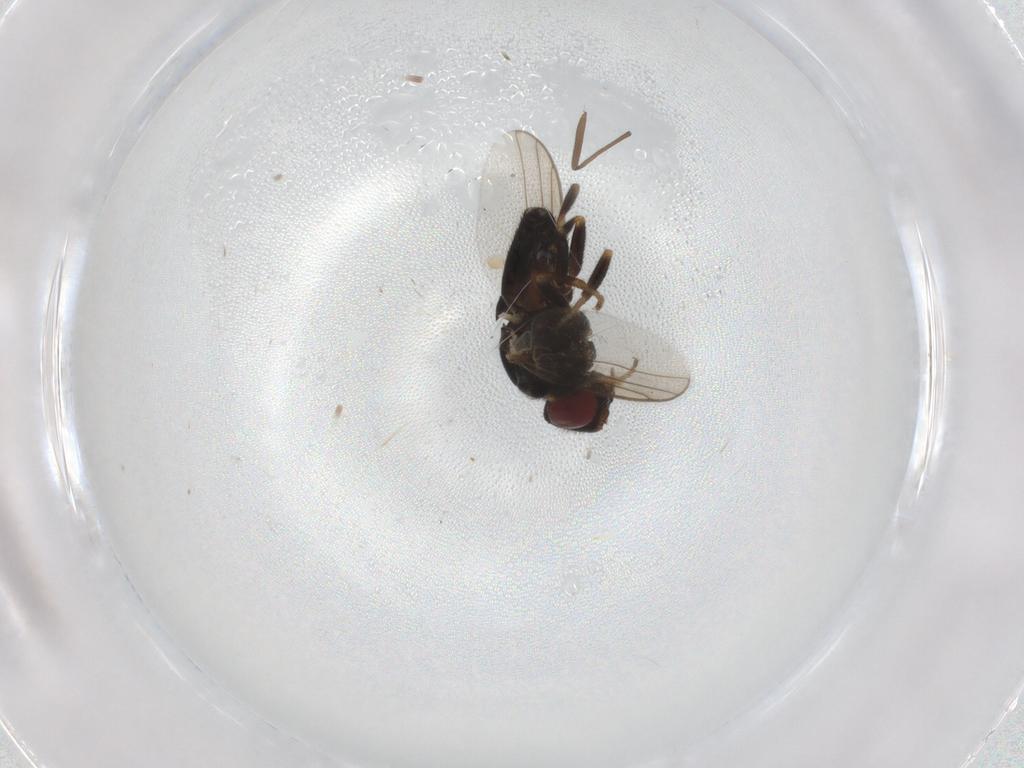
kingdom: Animalia
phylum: Arthropoda
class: Insecta
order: Diptera
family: Chloropidae
